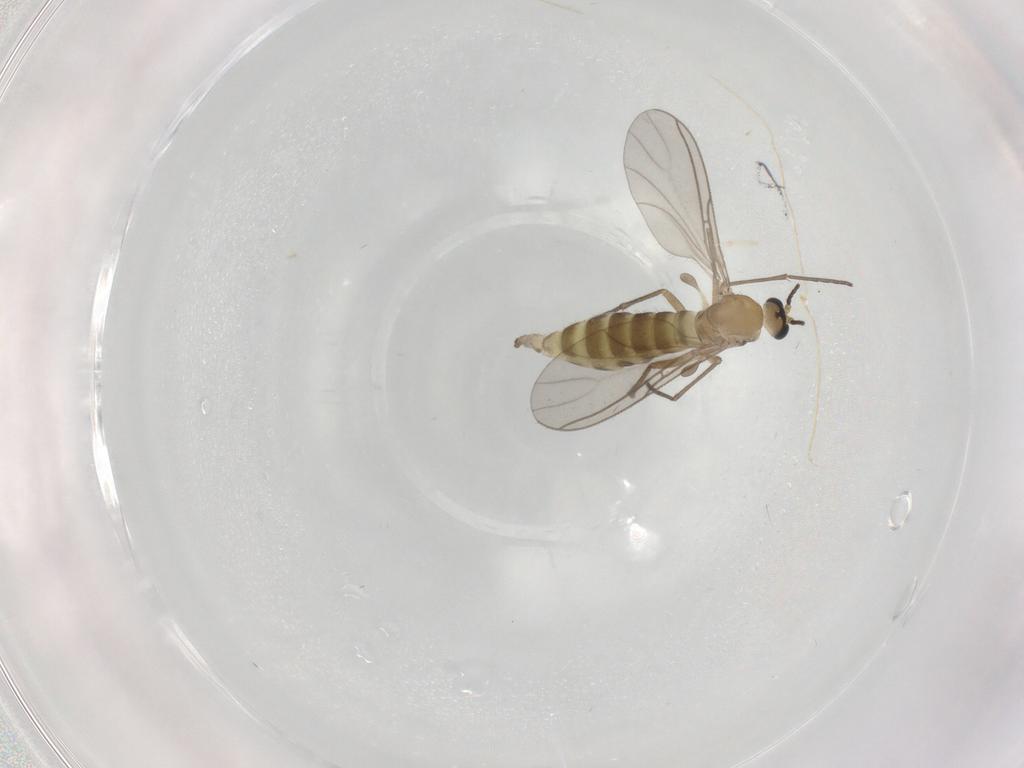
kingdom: Animalia
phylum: Arthropoda
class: Insecta
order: Diptera
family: Sciaridae
